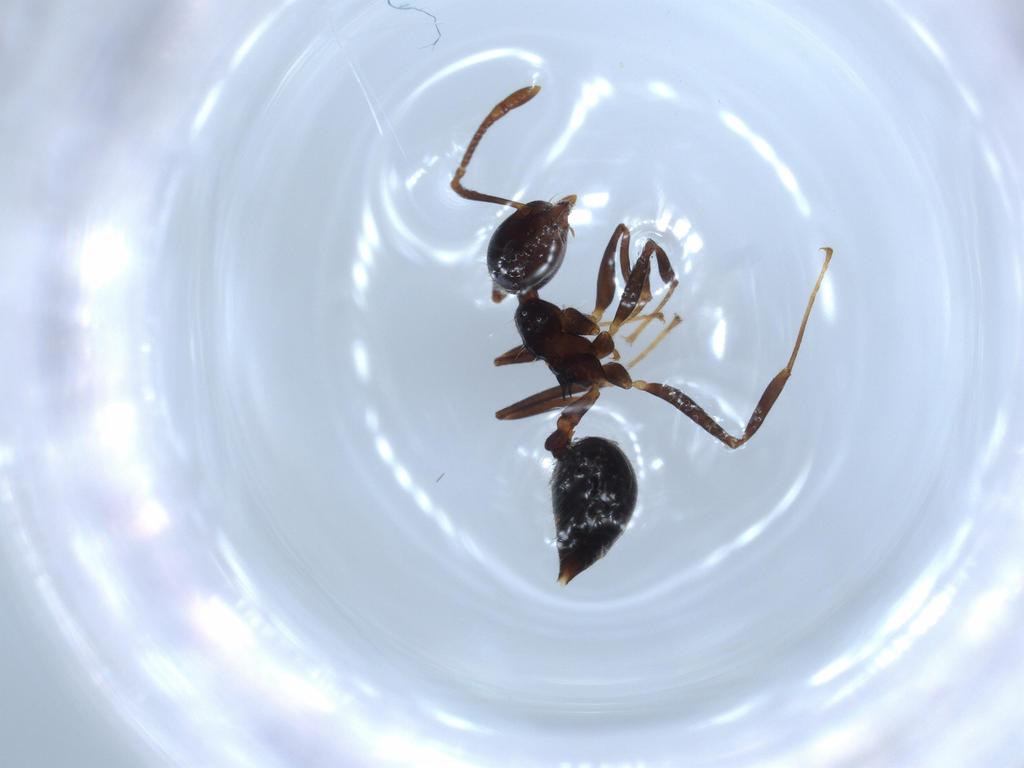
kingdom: Animalia
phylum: Arthropoda
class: Insecta
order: Hymenoptera
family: Formicidae
